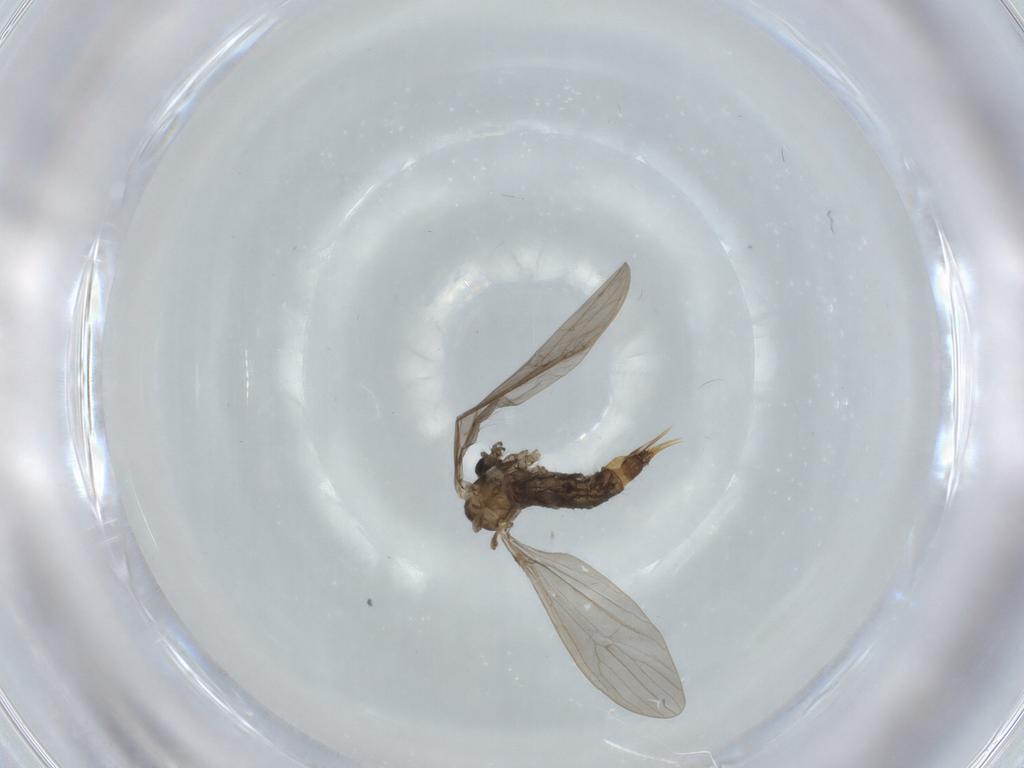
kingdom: Animalia
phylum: Arthropoda
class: Insecta
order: Diptera
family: Limoniidae
